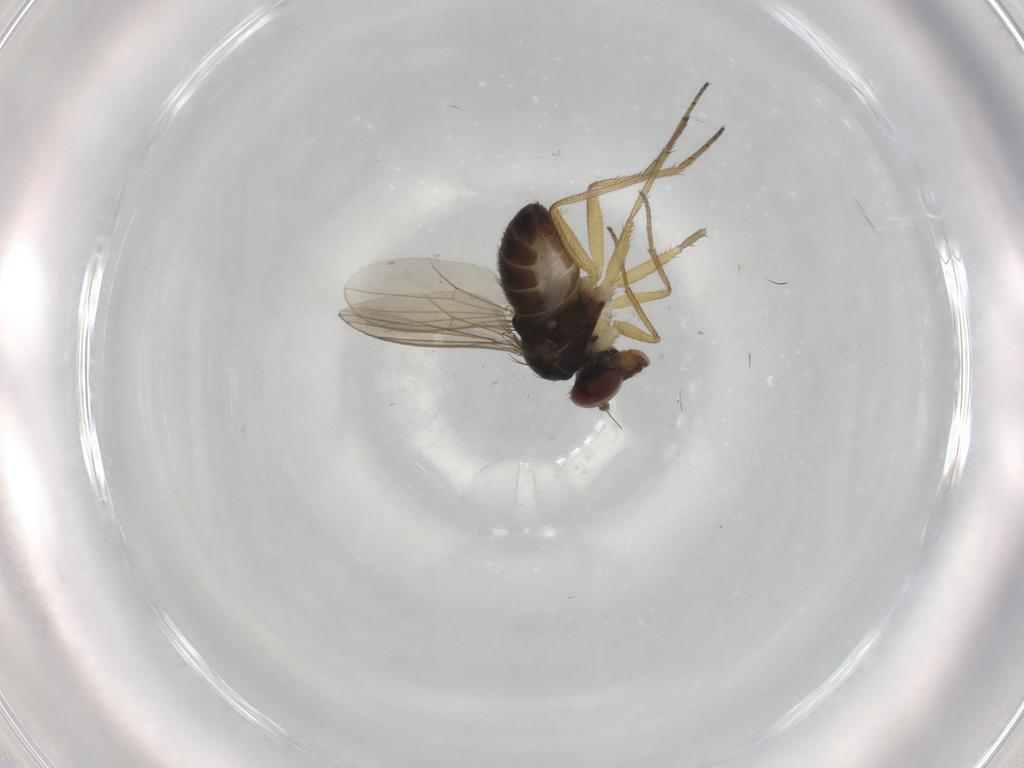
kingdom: Animalia
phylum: Arthropoda
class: Insecta
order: Diptera
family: Dolichopodidae
